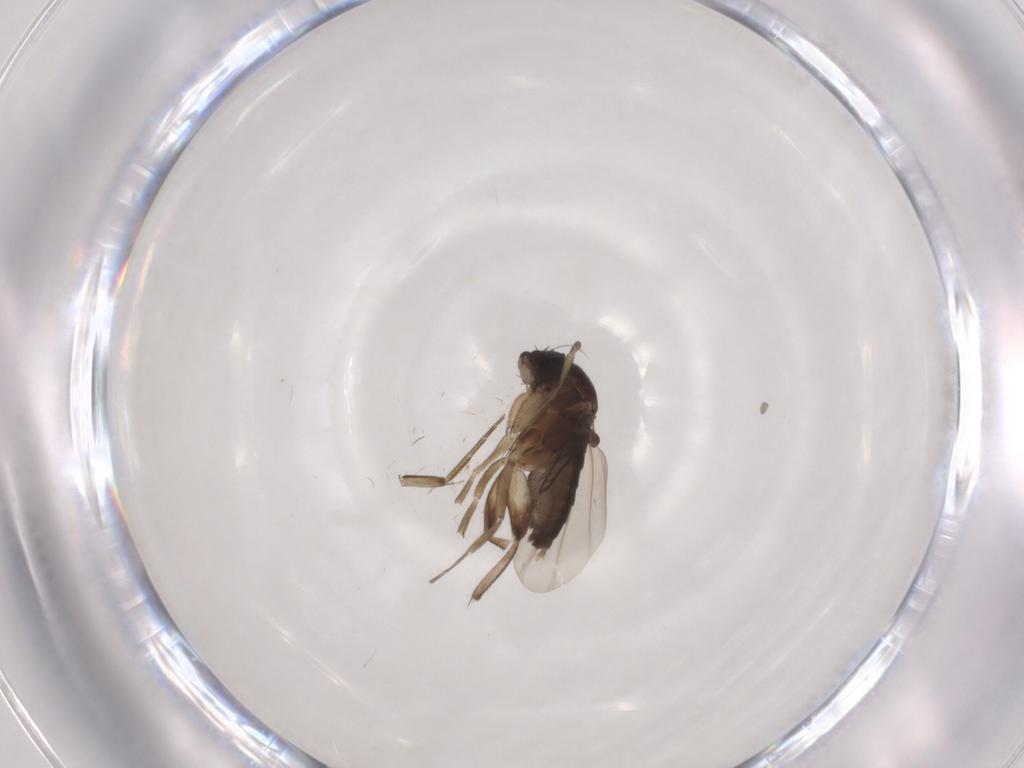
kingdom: Animalia
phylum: Arthropoda
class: Insecta
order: Diptera
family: Phoridae
